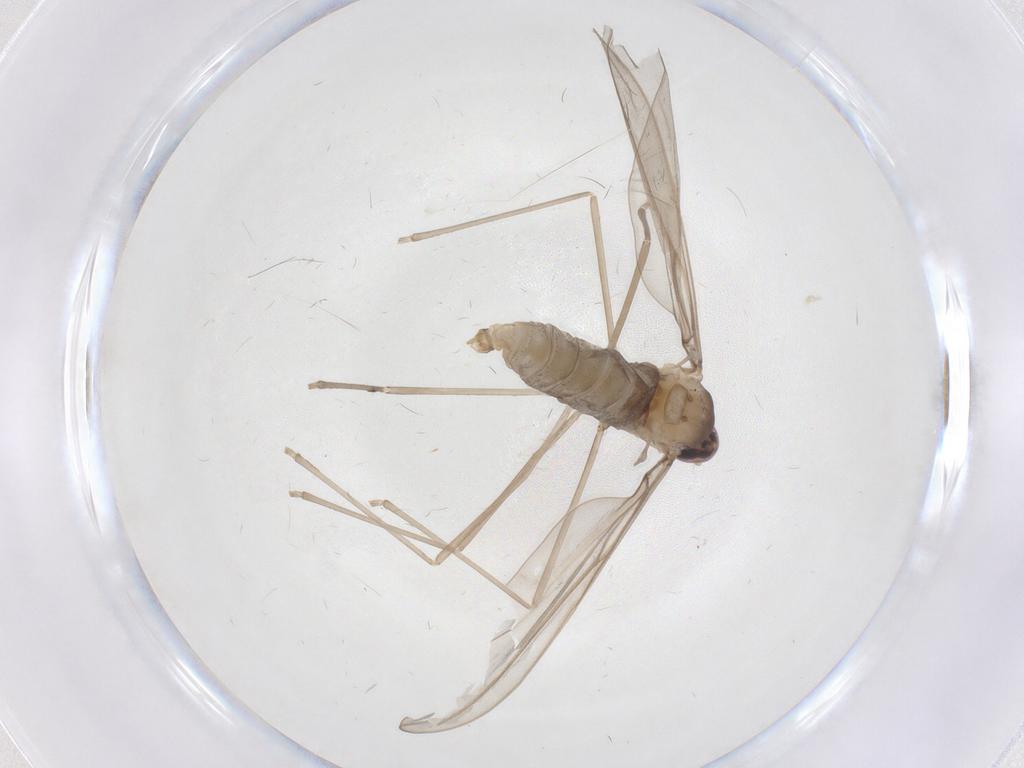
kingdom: Animalia
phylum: Arthropoda
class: Insecta
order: Diptera
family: Cecidomyiidae
